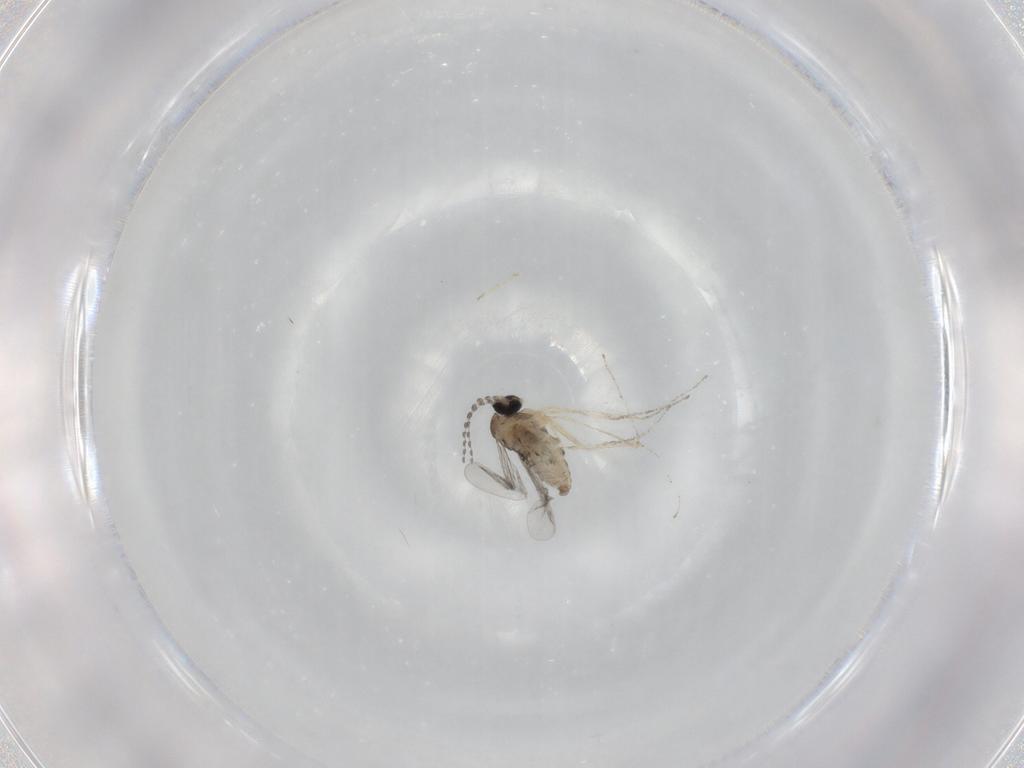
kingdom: Animalia
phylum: Arthropoda
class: Insecta
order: Diptera
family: Cecidomyiidae
